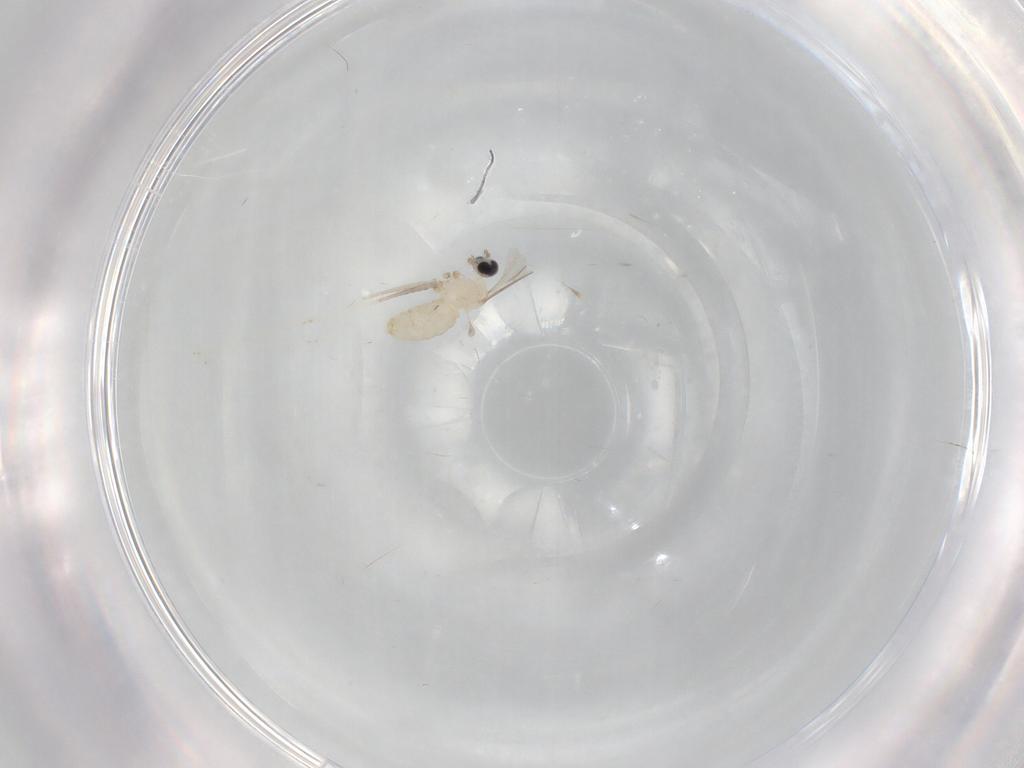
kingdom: Animalia
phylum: Arthropoda
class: Insecta
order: Diptera
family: Cecidomyiidae
